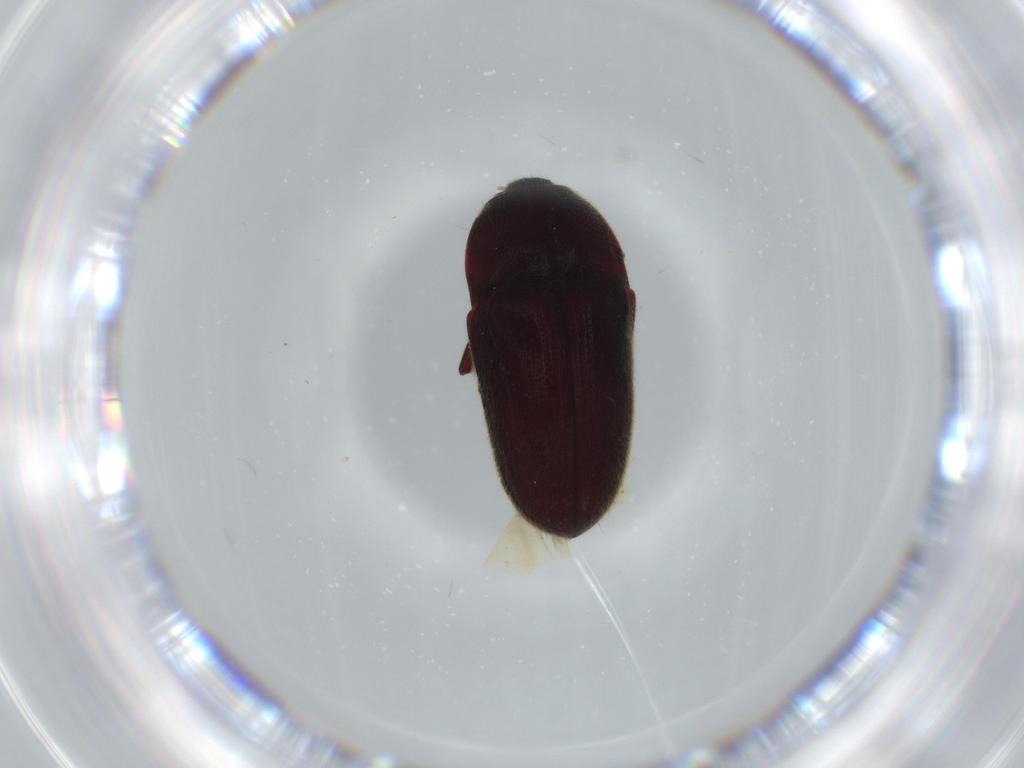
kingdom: Animalia
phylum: Arthropoda
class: Insecta
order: Coleoptera
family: Throscidae
